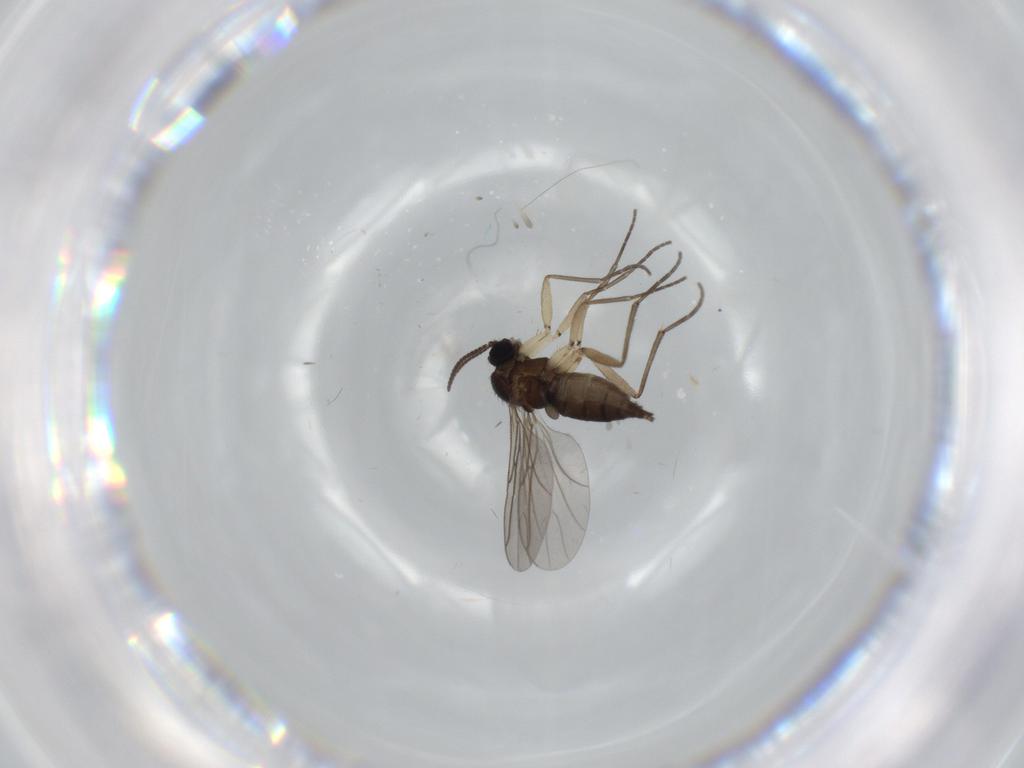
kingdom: Animalia
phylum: Arthropoda
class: Insecta
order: Diptera
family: Sciaridae
